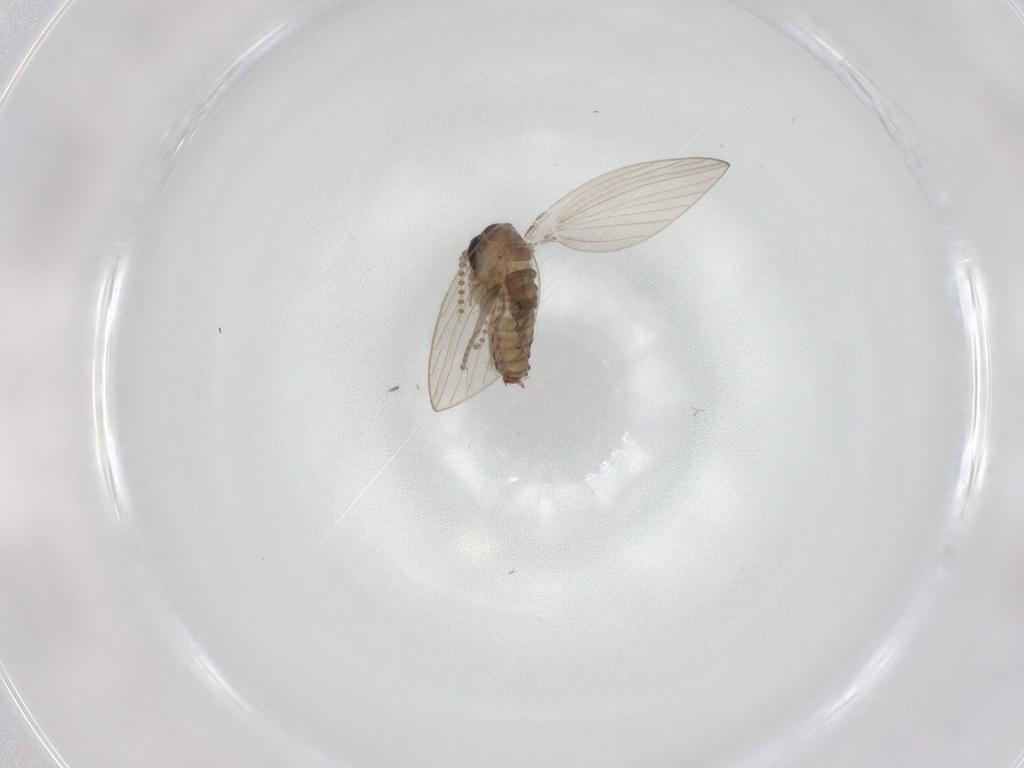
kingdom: Animalia
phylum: Arthropoda
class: Insecta
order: Diptera
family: Psychodidae
